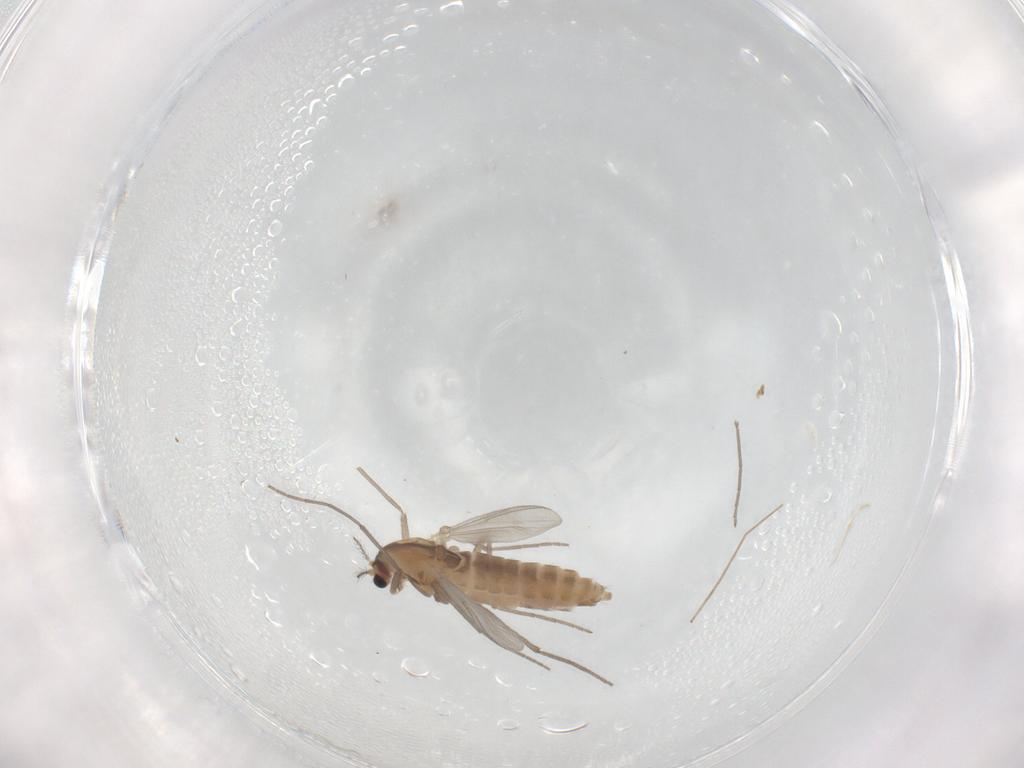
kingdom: Animalia
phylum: Arthropoda
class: Insecta
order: Diptera
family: Chironomidae
